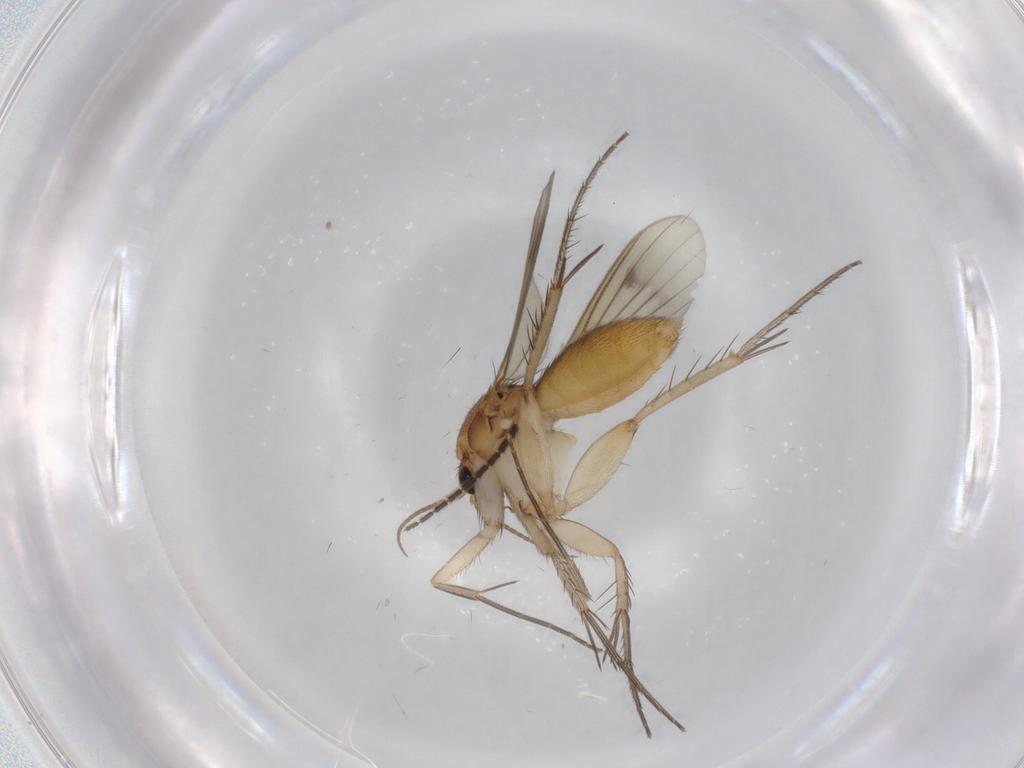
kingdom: Animalia
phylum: Arthropoda
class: Insecta
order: Diptera
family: Mycetophilidae
